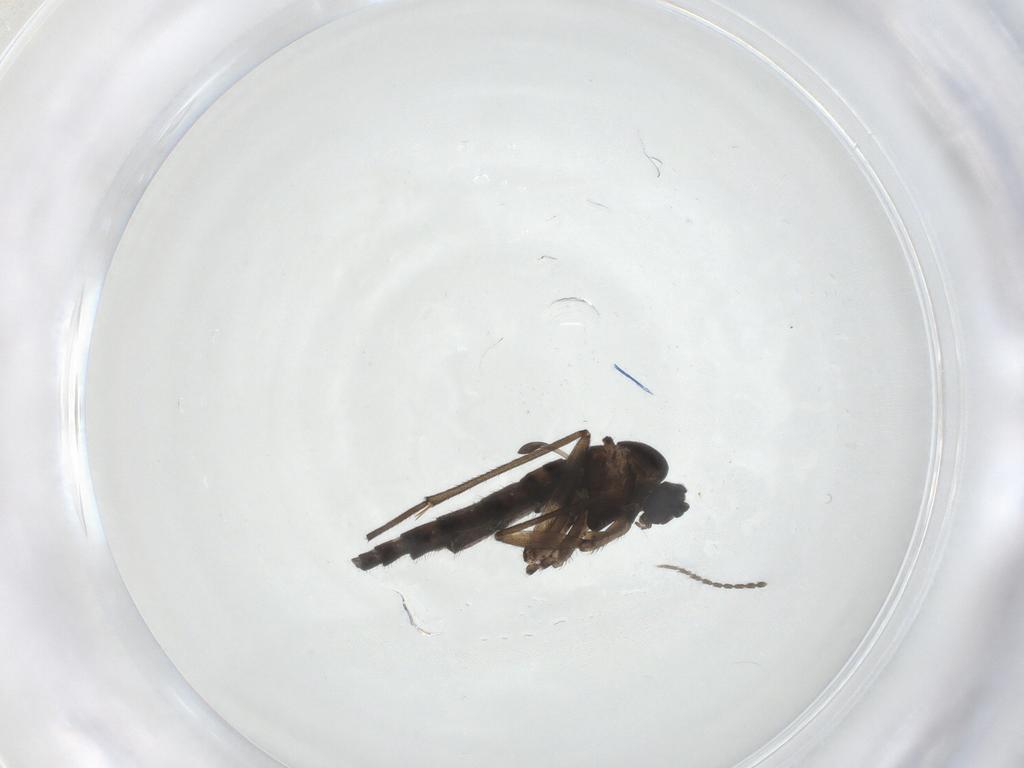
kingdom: Animalia
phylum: Arthropoda
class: Insecta
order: Diptera
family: Sciaridae
